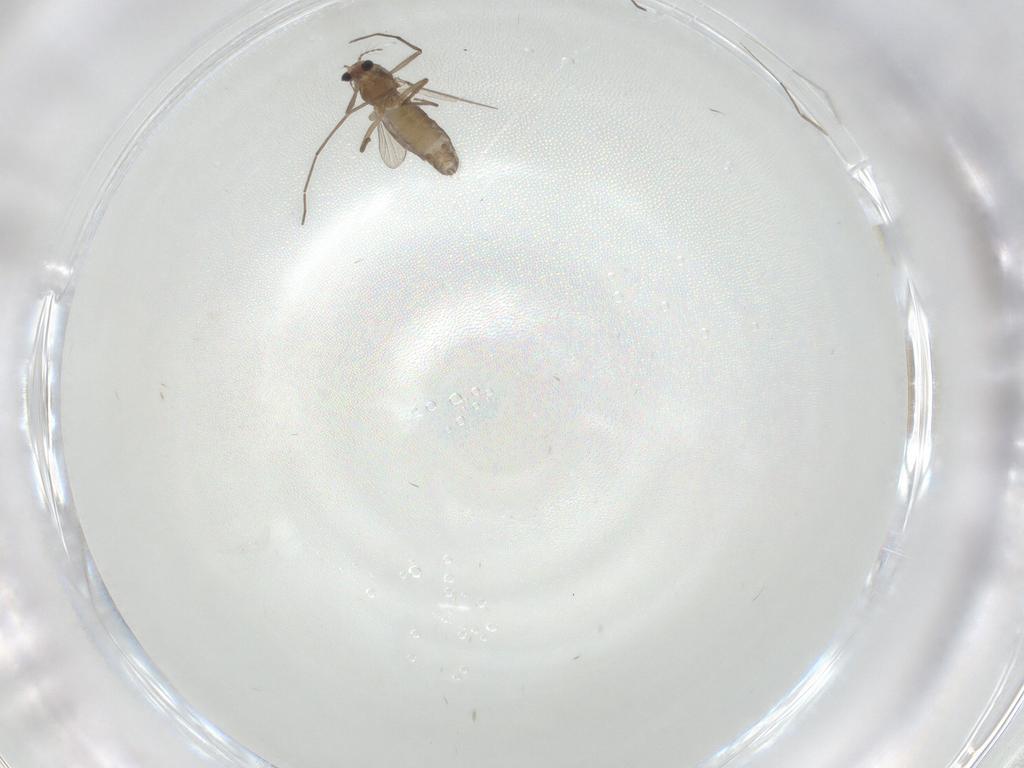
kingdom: Animalia
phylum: Arthropoda
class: Insecta
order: Diptera
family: Chironomidae
